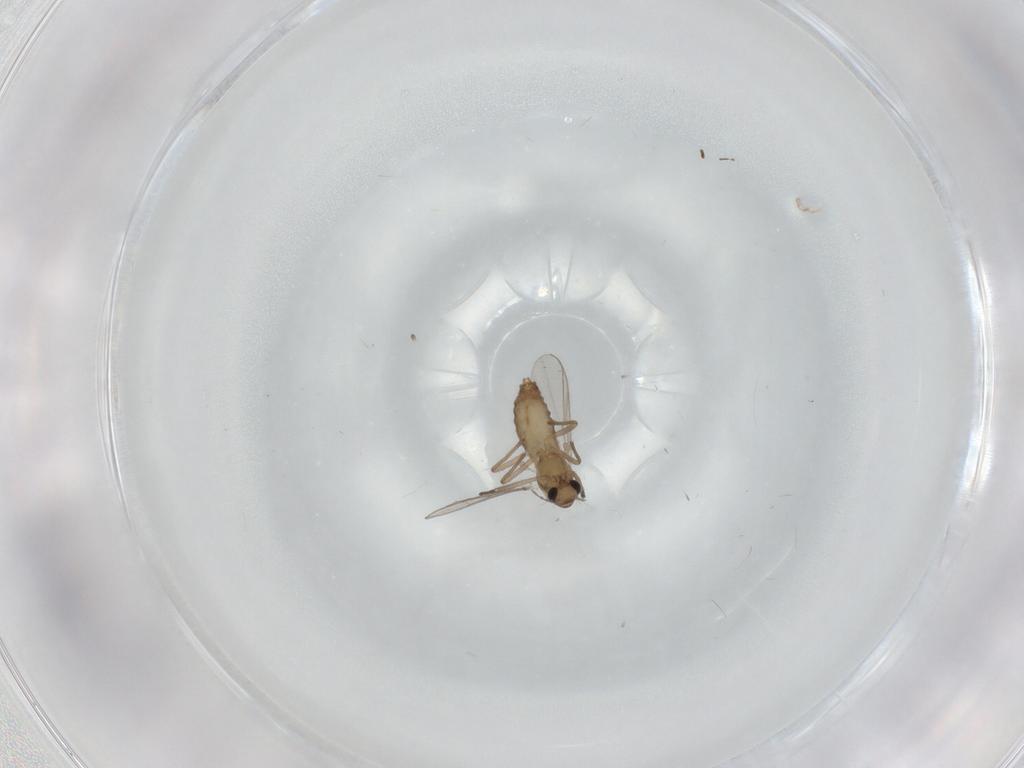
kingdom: Animalia
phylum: Arthropoda
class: Insecta
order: Diptera
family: Chironomidae
